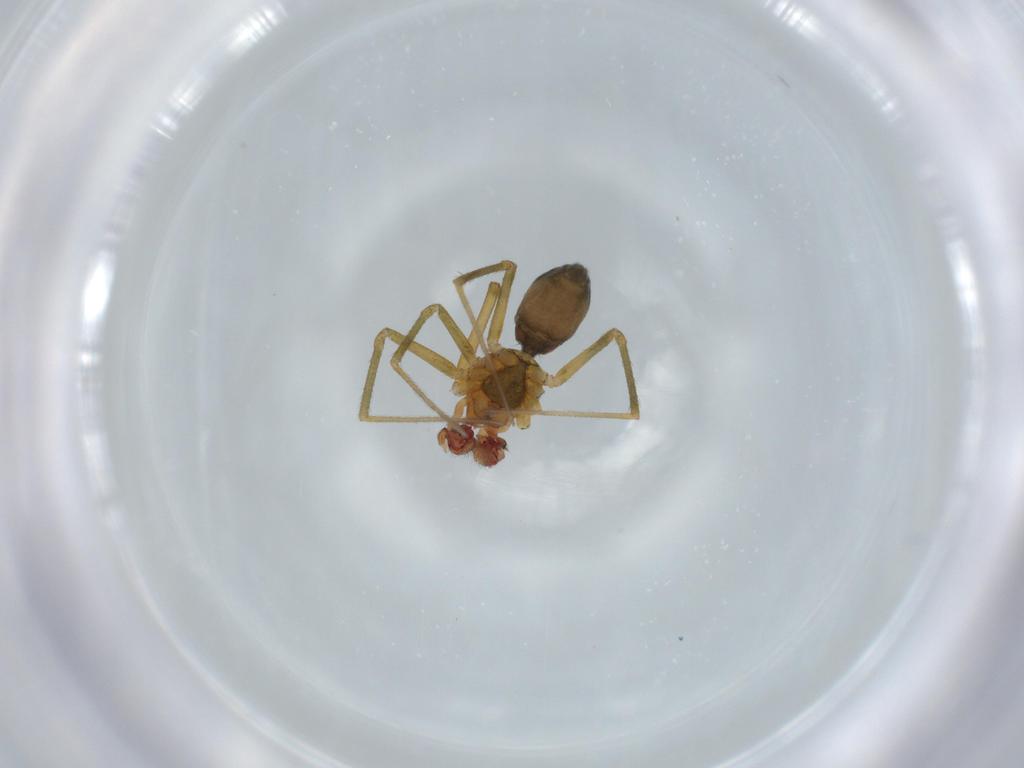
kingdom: Animalia
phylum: Arthropoda
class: Arachnida
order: Araneae
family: Linyphiidae
